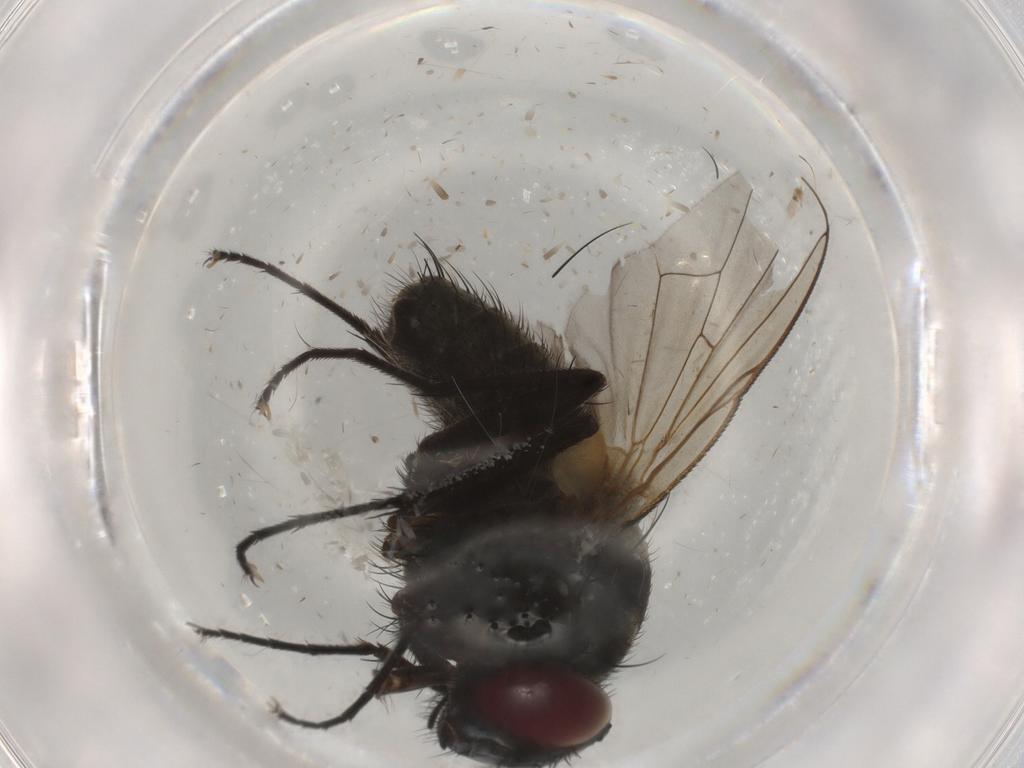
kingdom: Animalia
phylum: Arthropoda
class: Insecta
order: Diptera
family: Muscidae
